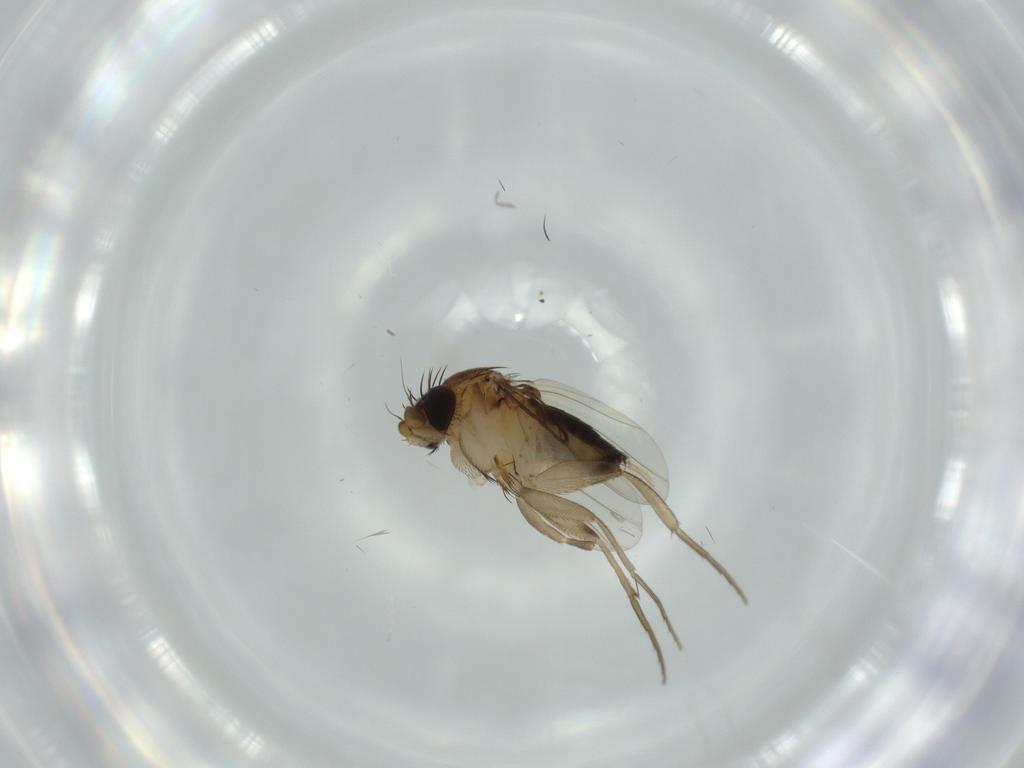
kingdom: Animalia
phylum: Arthropoda
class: Insecta
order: Diptera
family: Phoridae
